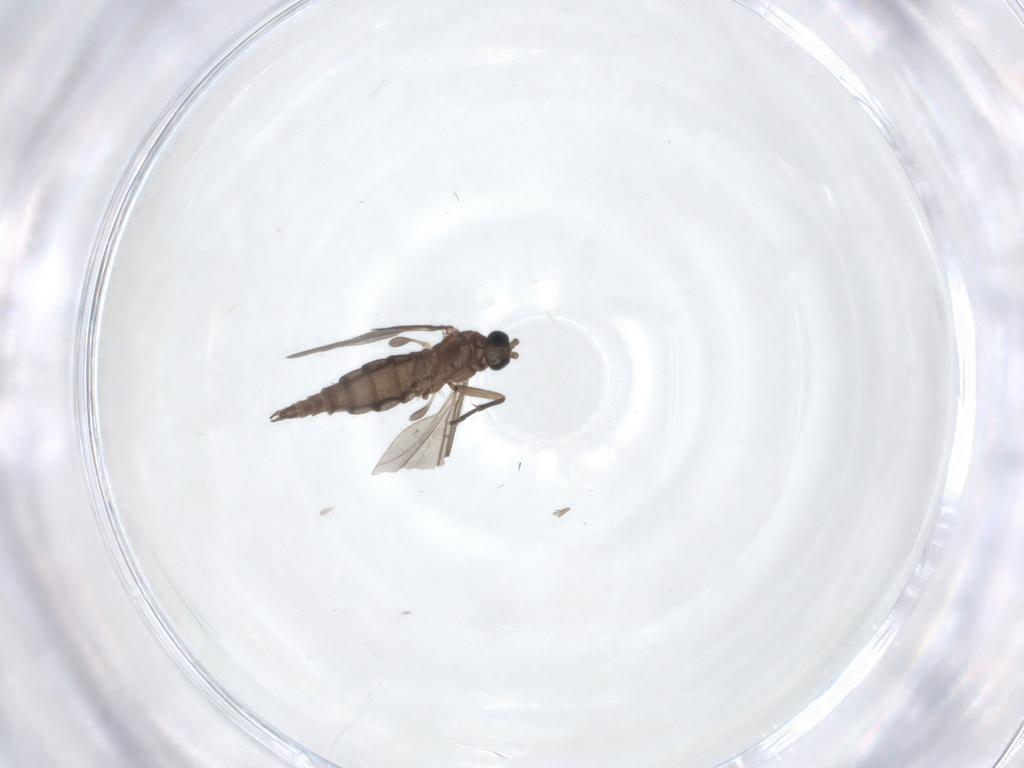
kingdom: Animalia
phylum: Arthropoda
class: Insecta
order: Diptera
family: Sciaridae
